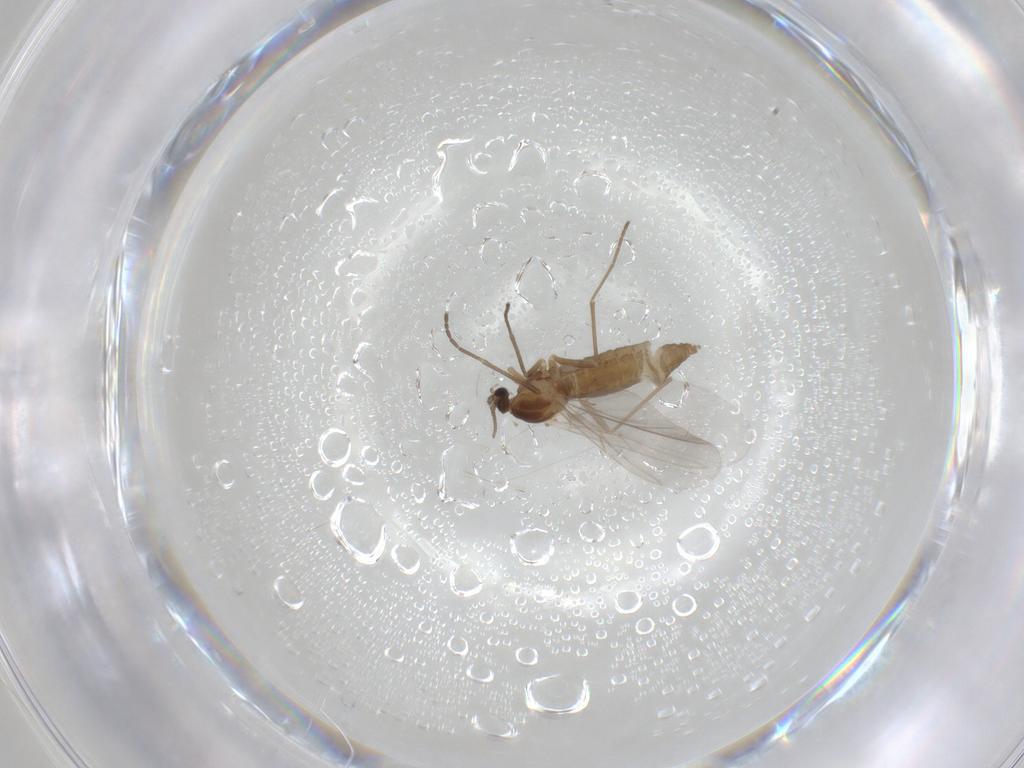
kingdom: Animalia
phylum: Arthropoda
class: Insecta
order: Diptera
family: Cecidomyiidae
